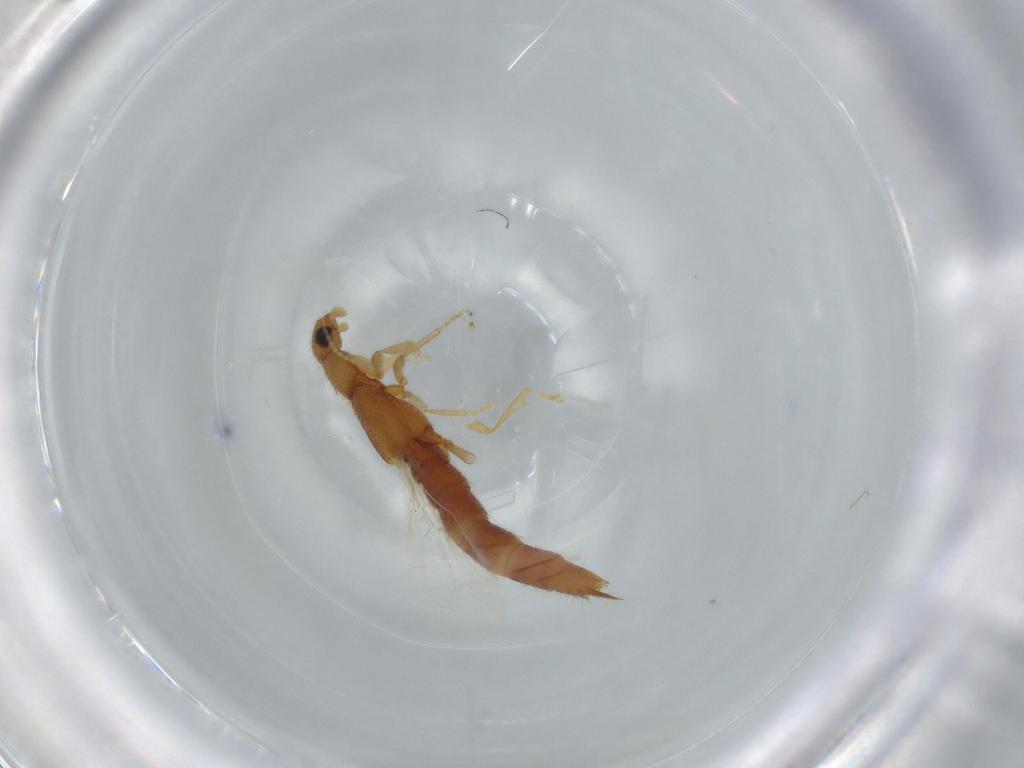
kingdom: Animalia
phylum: Arthropoda
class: Insecta
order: Coleoptera
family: Staphylinidae
